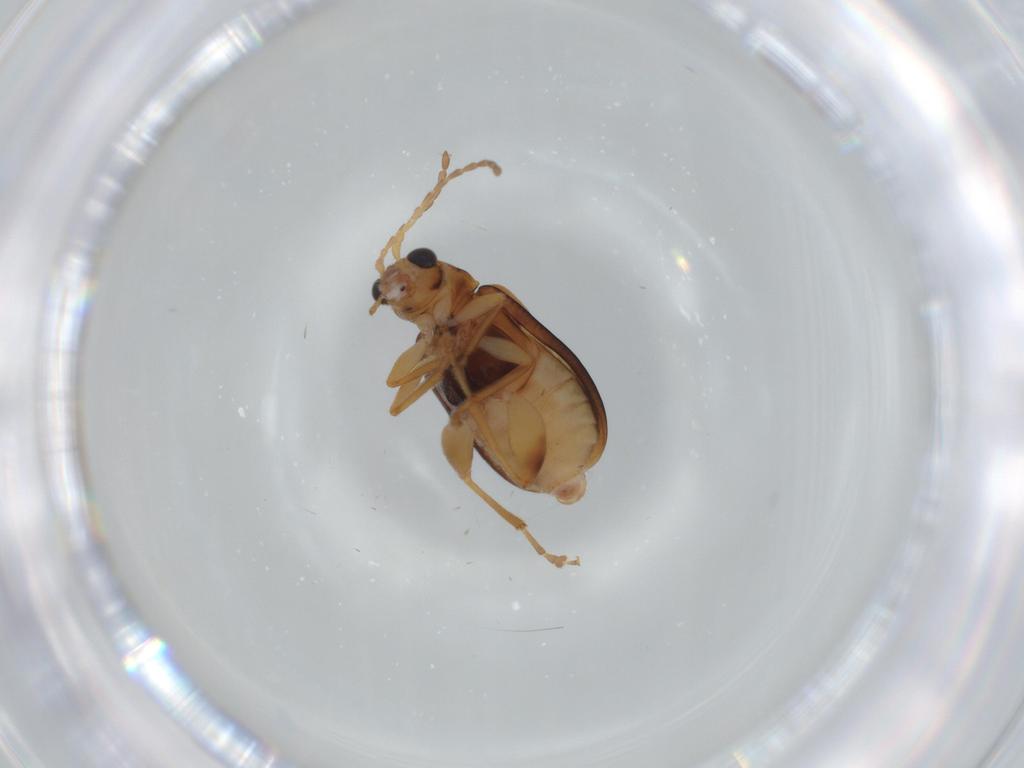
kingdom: Animalia
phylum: Arthropoda
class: Insecta
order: Coleoptera
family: Chrysomelidae
